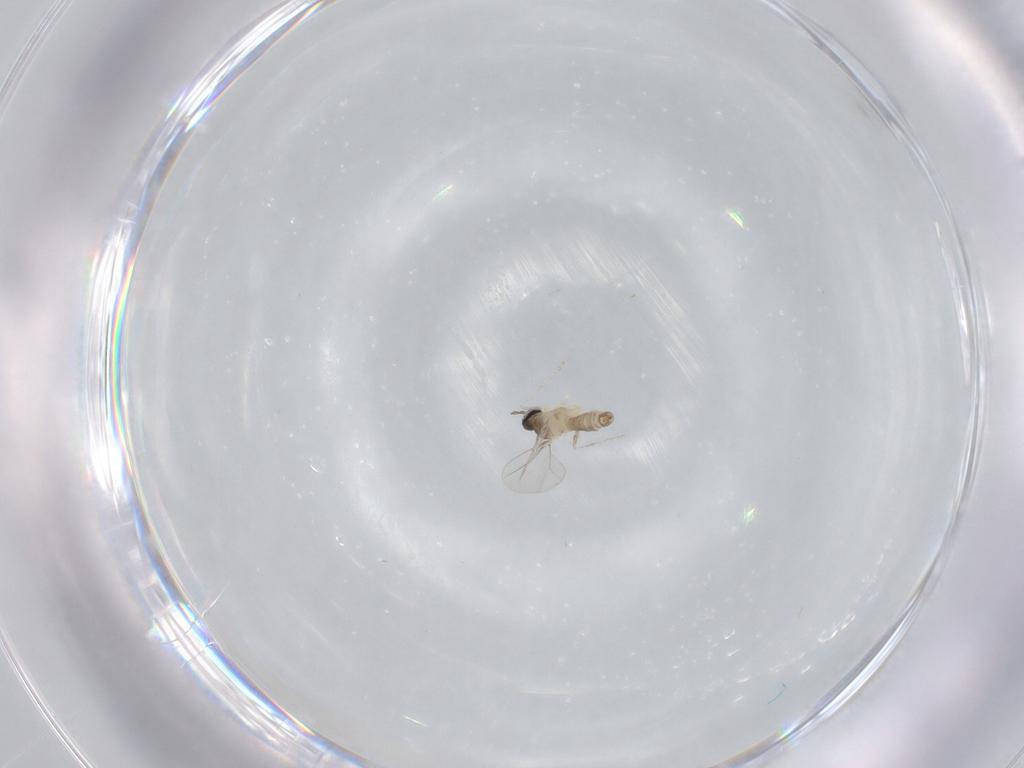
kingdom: Animalia
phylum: Arthropoda
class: Insecta
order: Diptera
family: Cecidomyiidae
